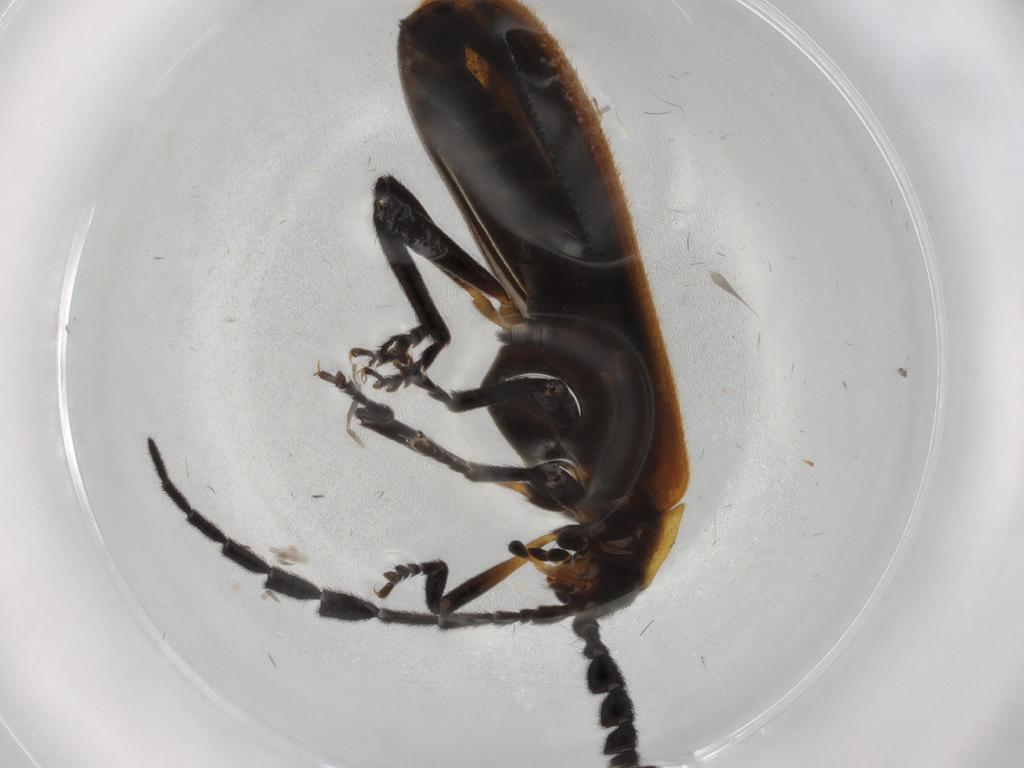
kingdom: Animalia
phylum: Arthropoda
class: Insecta
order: Coleoptera
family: Lycidae
